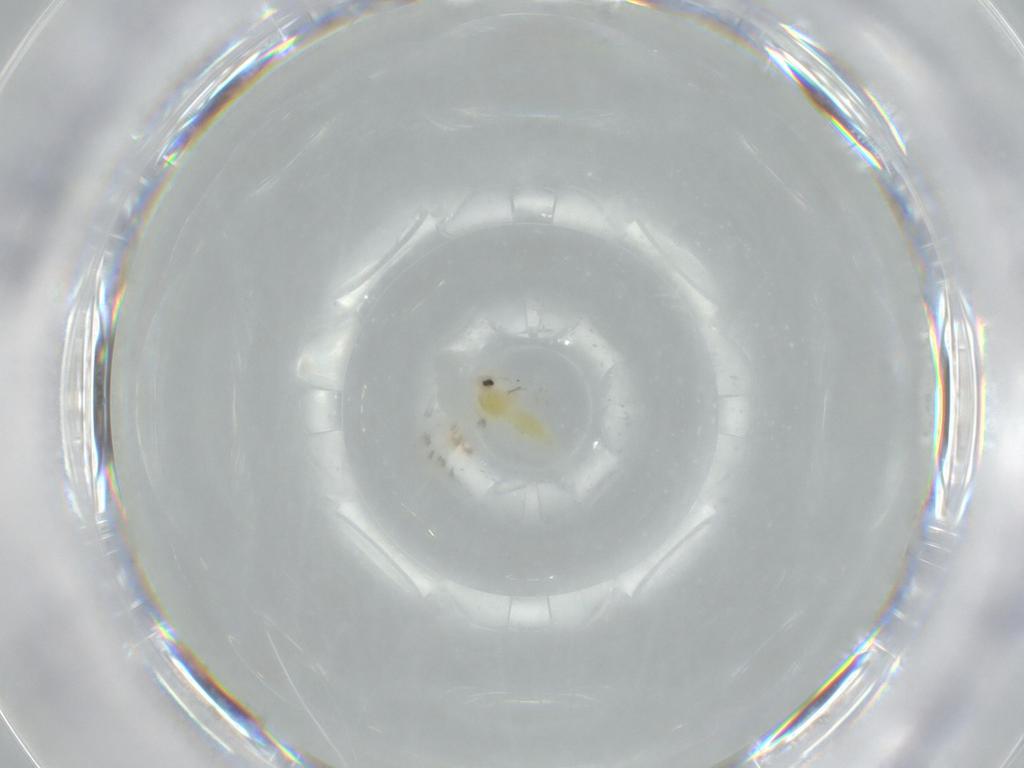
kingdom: Animalia
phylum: Arthropoda
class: Insecta
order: Hemiptera
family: Aleyrodidae
